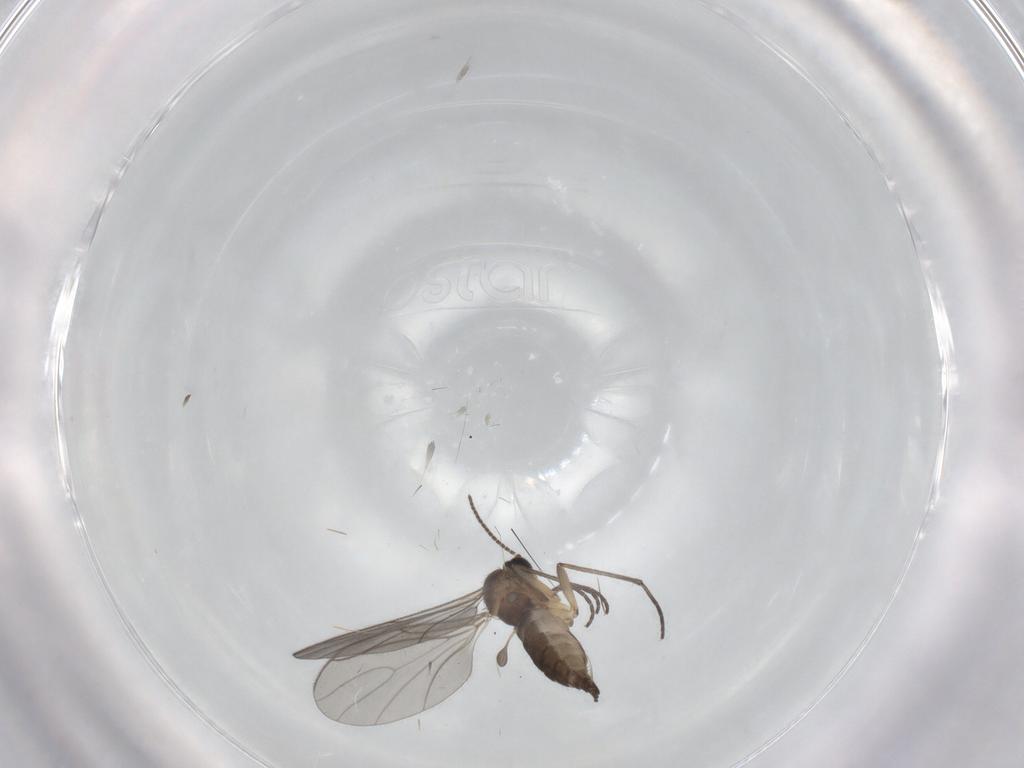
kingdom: Animalia
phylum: Arthropoda
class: Insecta
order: Diptera
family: Sciaridae
